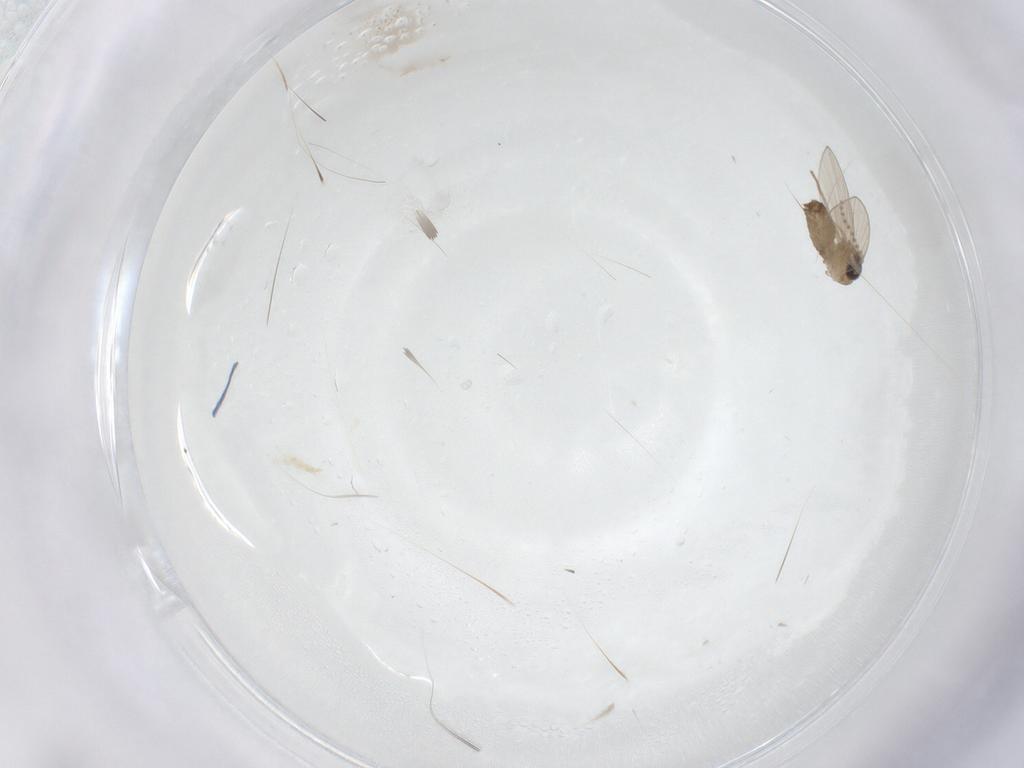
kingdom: Animalia
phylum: Arthropoda
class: Insecta
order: Diptera
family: Psychodidae
